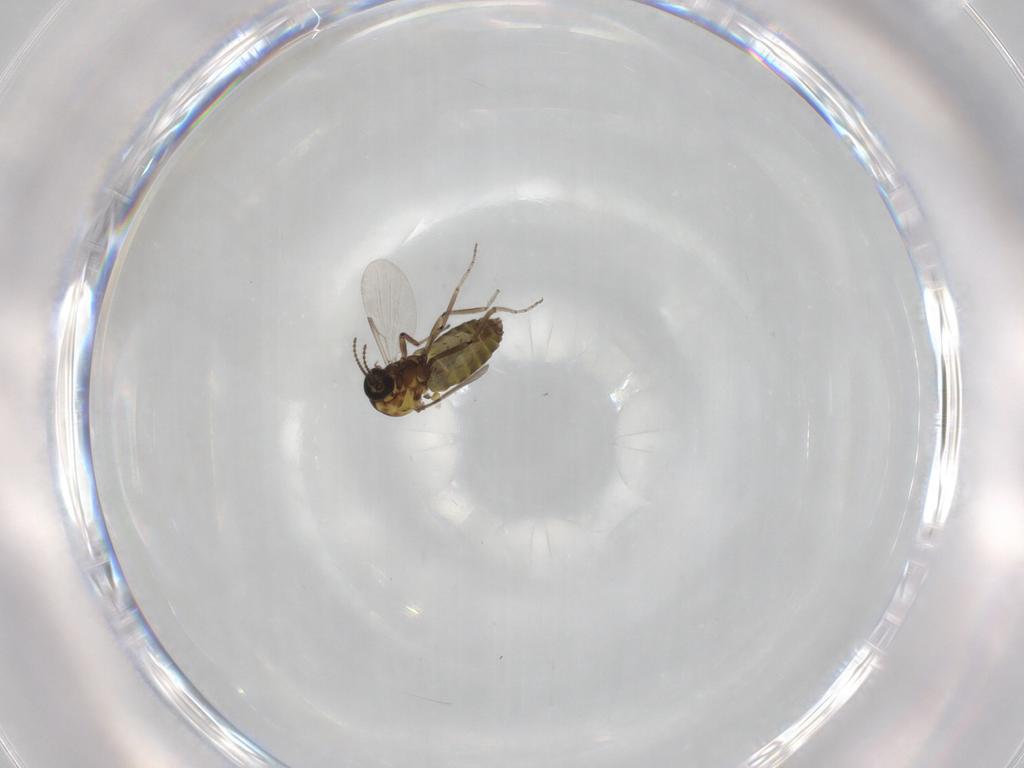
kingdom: Animalia
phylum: Arthropoda
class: Insecta
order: Diptera
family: Ceratopogonidae
